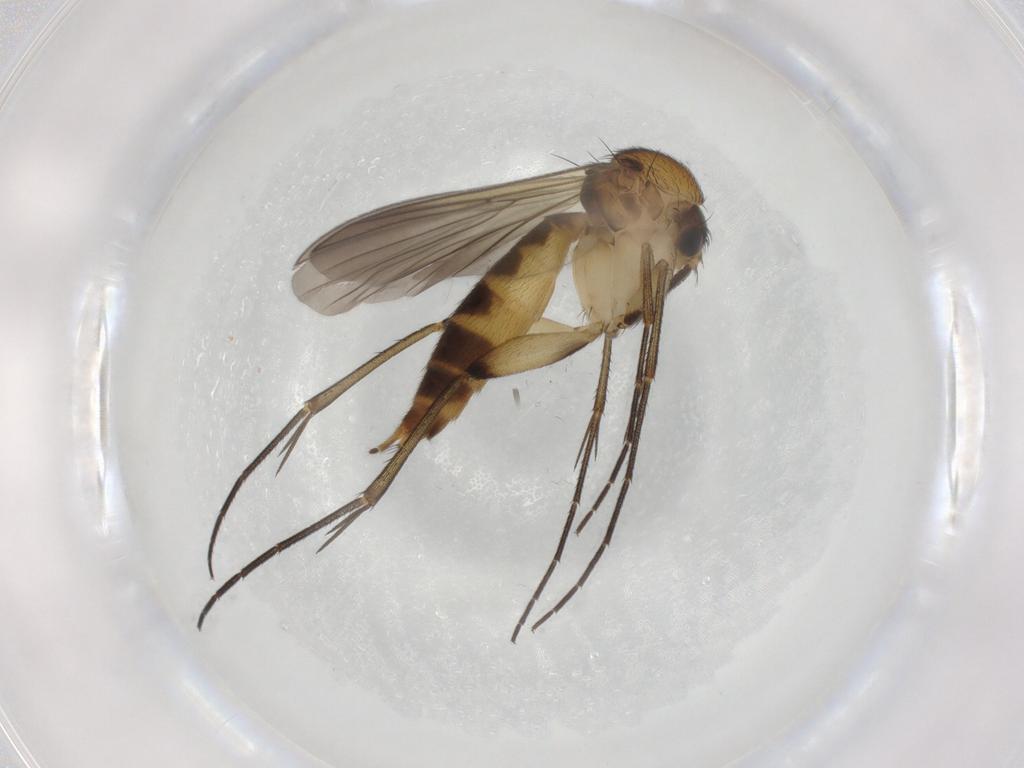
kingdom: Animalia
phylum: Arthropoda
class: Insecta
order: Diptera
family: Mycetophilidae
